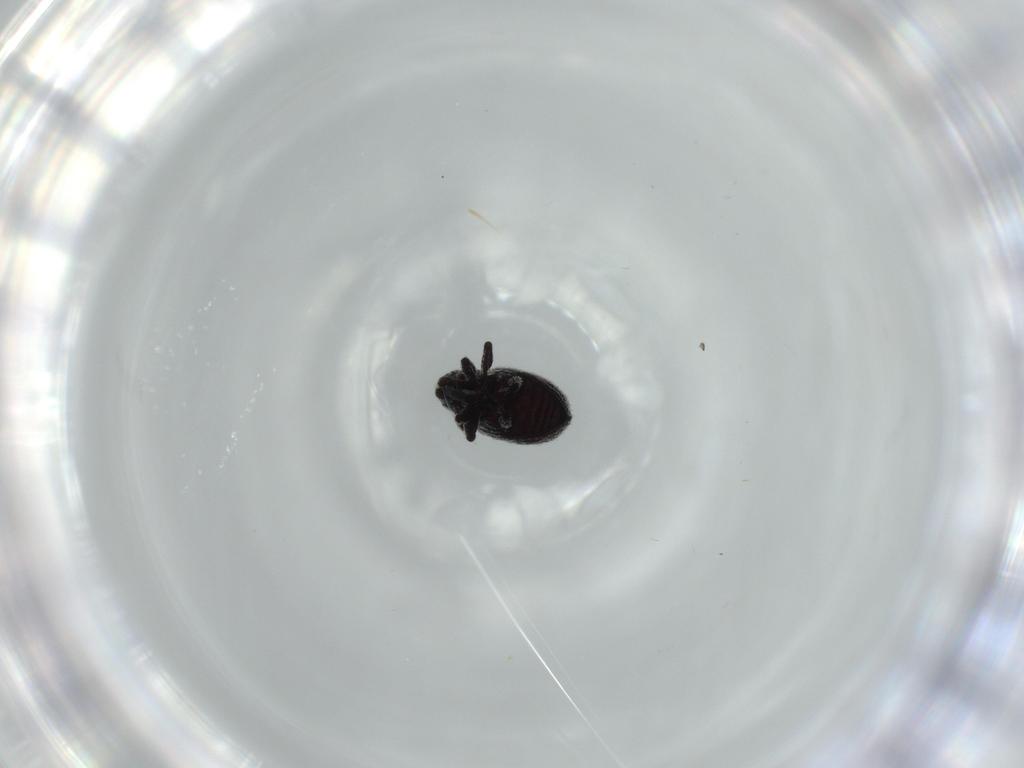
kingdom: Animalia
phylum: Arthropoda
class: Insecta
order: Coleoptera
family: Curculionidae
